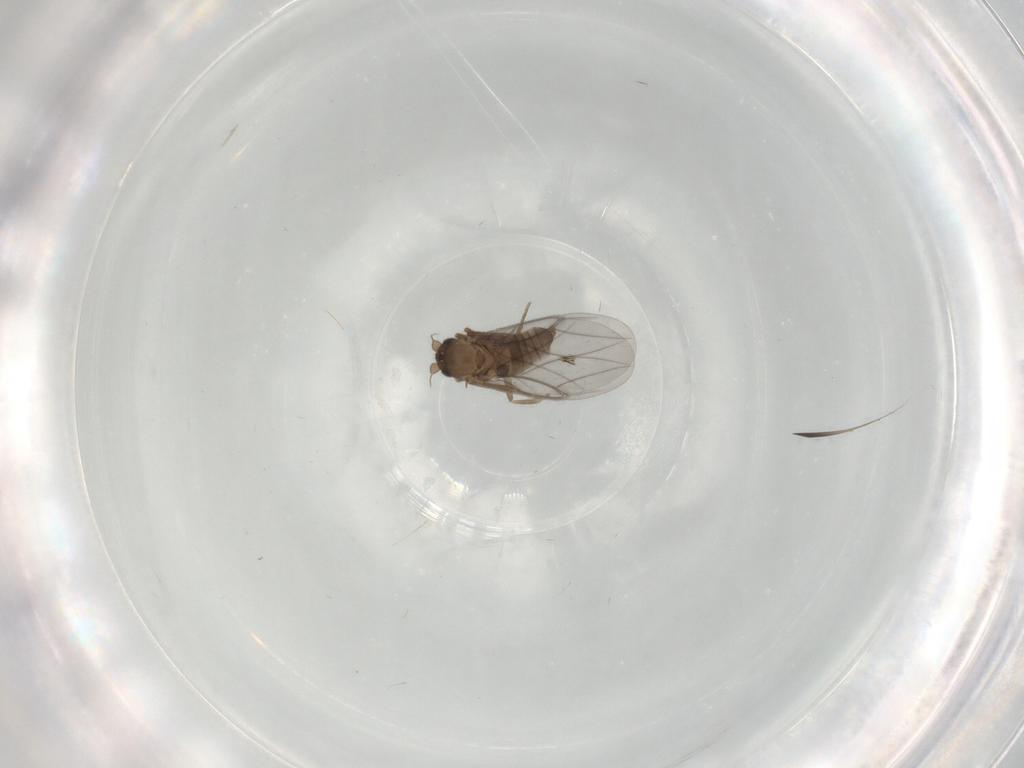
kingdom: Animalia
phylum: Arthropoda
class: Insecta
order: Diptera
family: Mycetophilidae
